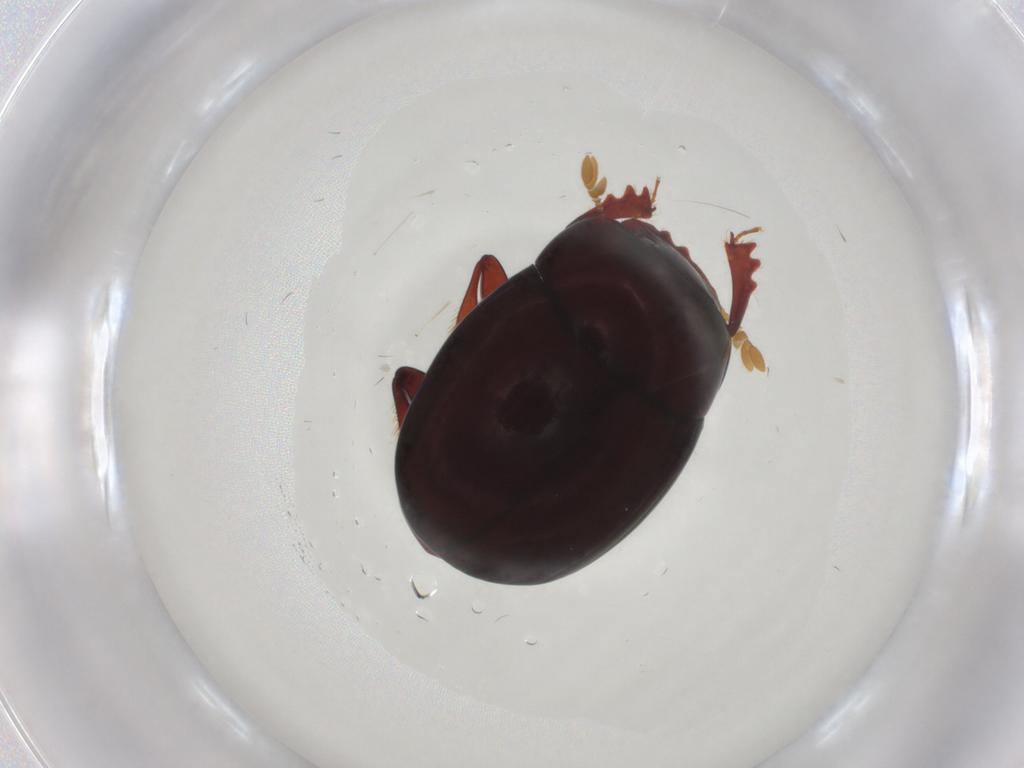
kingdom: Animalia
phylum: Arthropoda
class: Insecta
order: Coleoptera
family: Scarabaeidae
